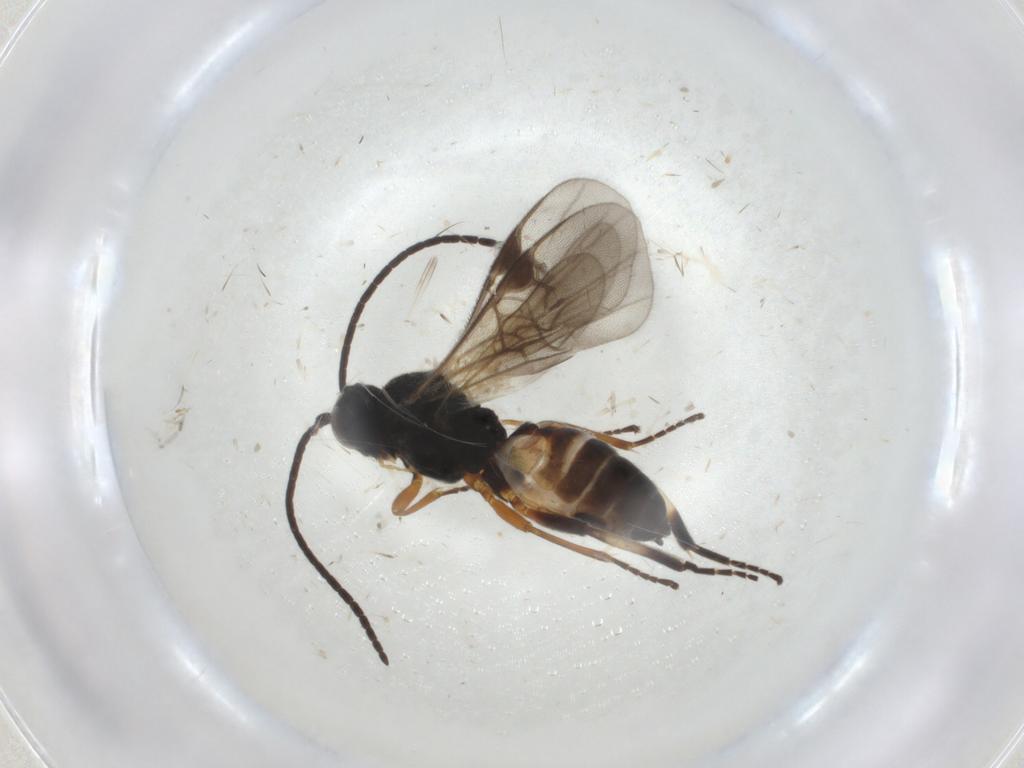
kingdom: Animalia
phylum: Arthropoda
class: Insecta
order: Hymenoptera
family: Braconidae
